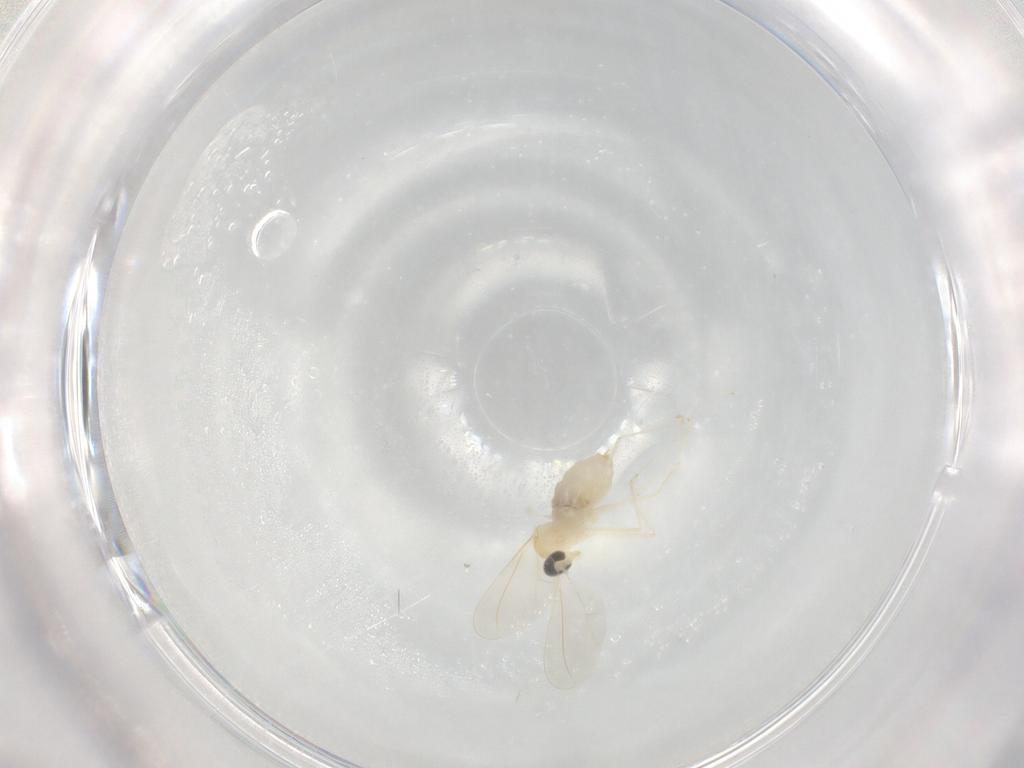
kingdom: Animalia
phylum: Arthropoda
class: Insecta
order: Diptera
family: Cecidomyiidae
